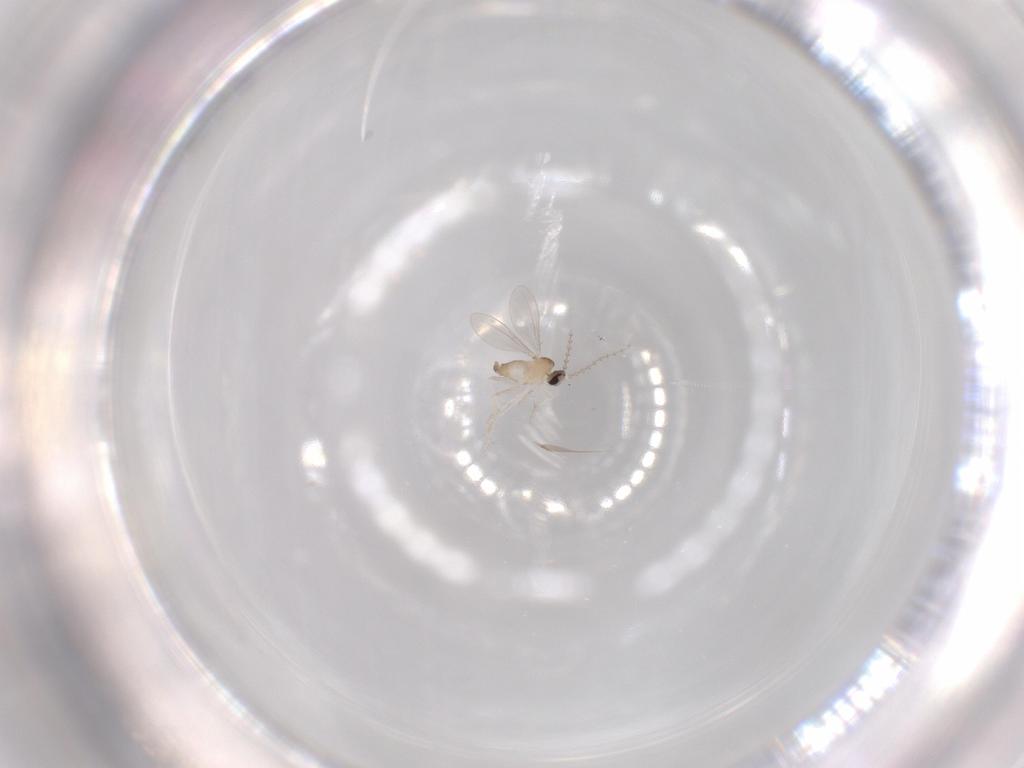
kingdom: Animalia
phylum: Arthropoda
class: Insecta
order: Diptera
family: Cecidomyiidae
